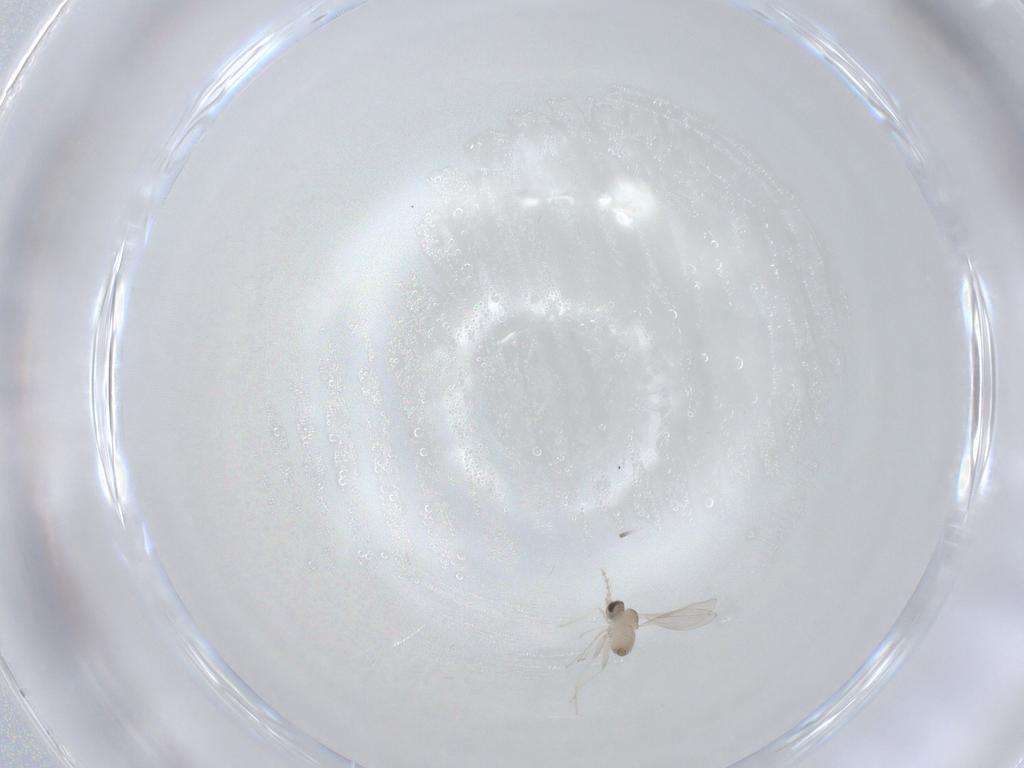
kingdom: Animalia
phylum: Arthropoda
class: Insecta
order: Diptera
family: Cecidomyiidae
